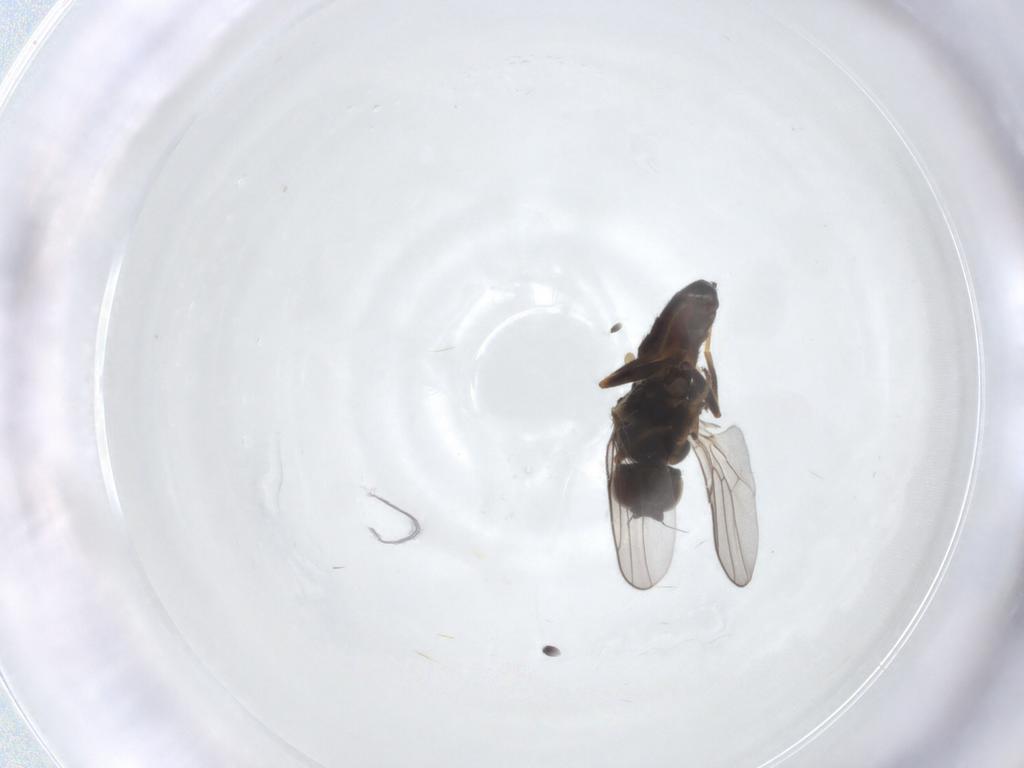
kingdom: Animalia
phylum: Arthropoda
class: Insecta
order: Diptera
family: Chloropidae
